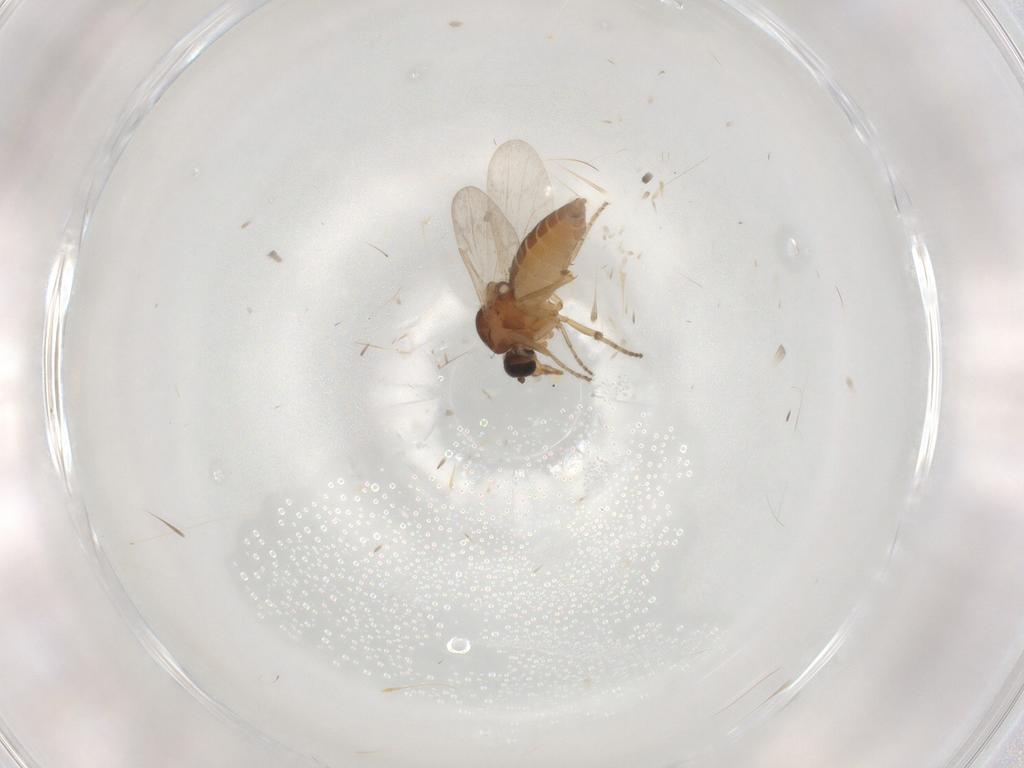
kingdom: Animalia
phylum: Arthropoda
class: Insecta
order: Diptera
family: Ceratopogonidae
